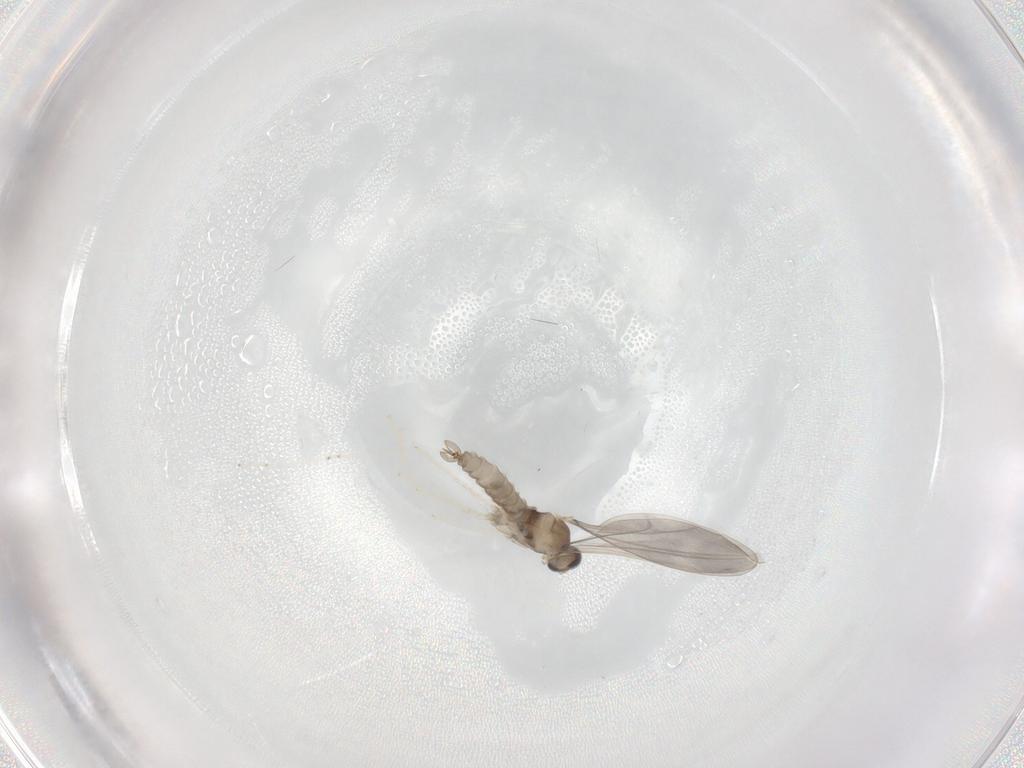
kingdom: Animalia
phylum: Arthropoda
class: Insecta
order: Diptera
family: Cecidomyiidae
